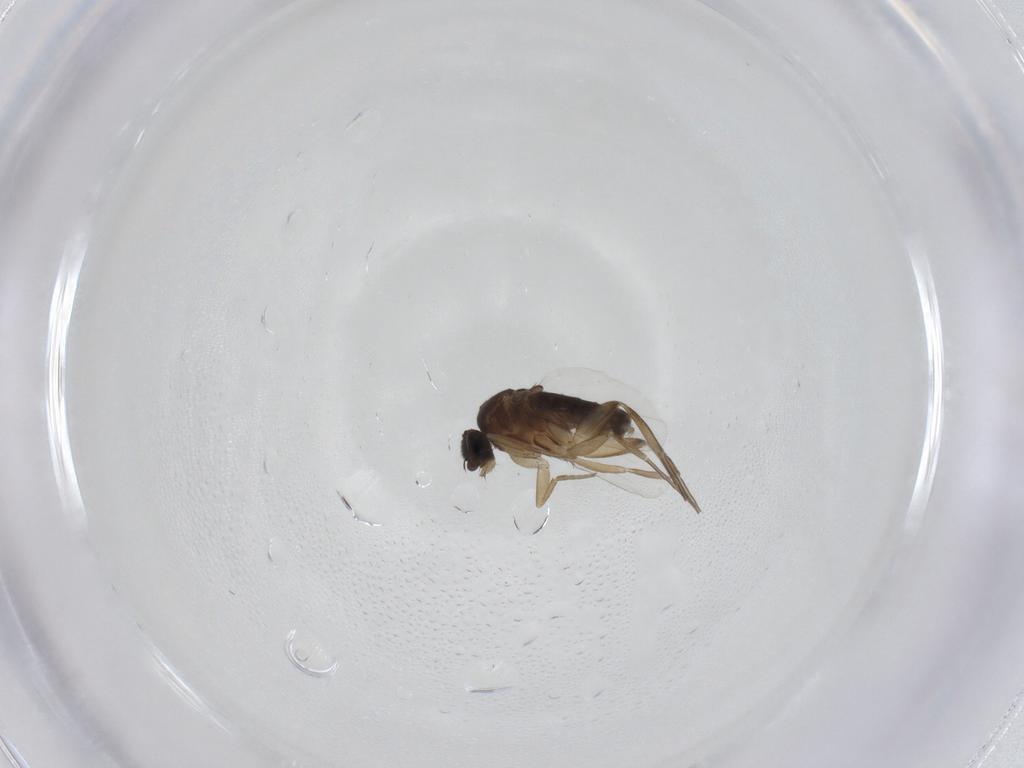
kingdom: Animalia
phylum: Arthropoda
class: Insecta
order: Diptera
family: Phoridae
